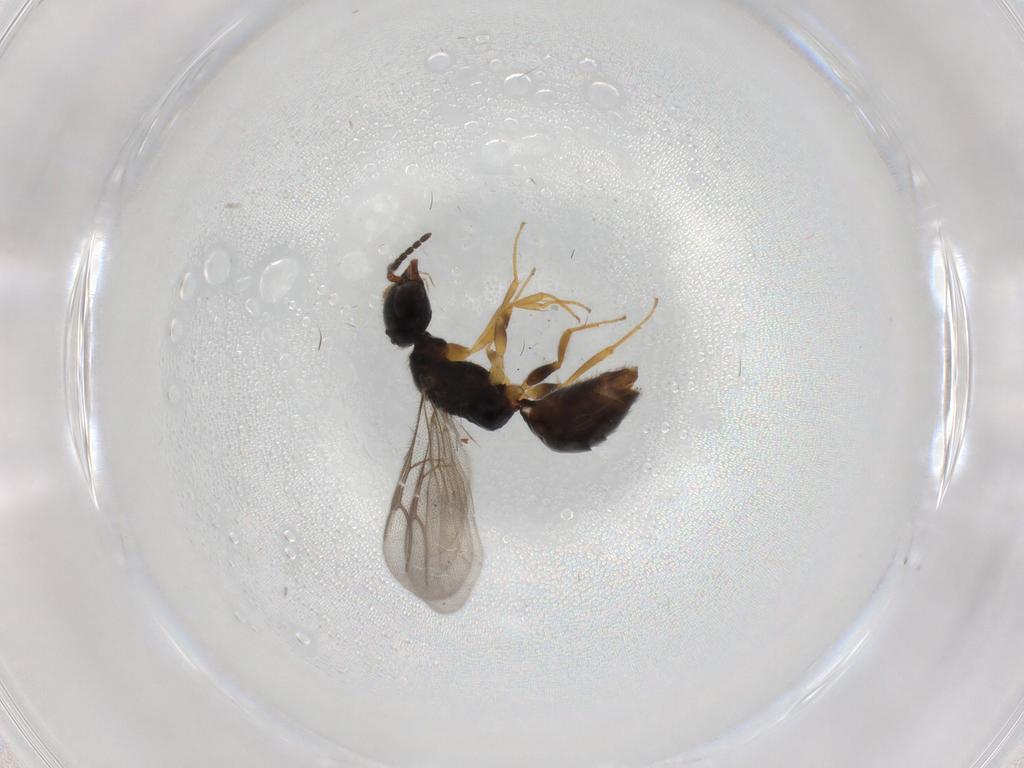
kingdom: Animalia
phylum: Arthropoda
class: Insecta
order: Hymenoptera
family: Bethylidae
